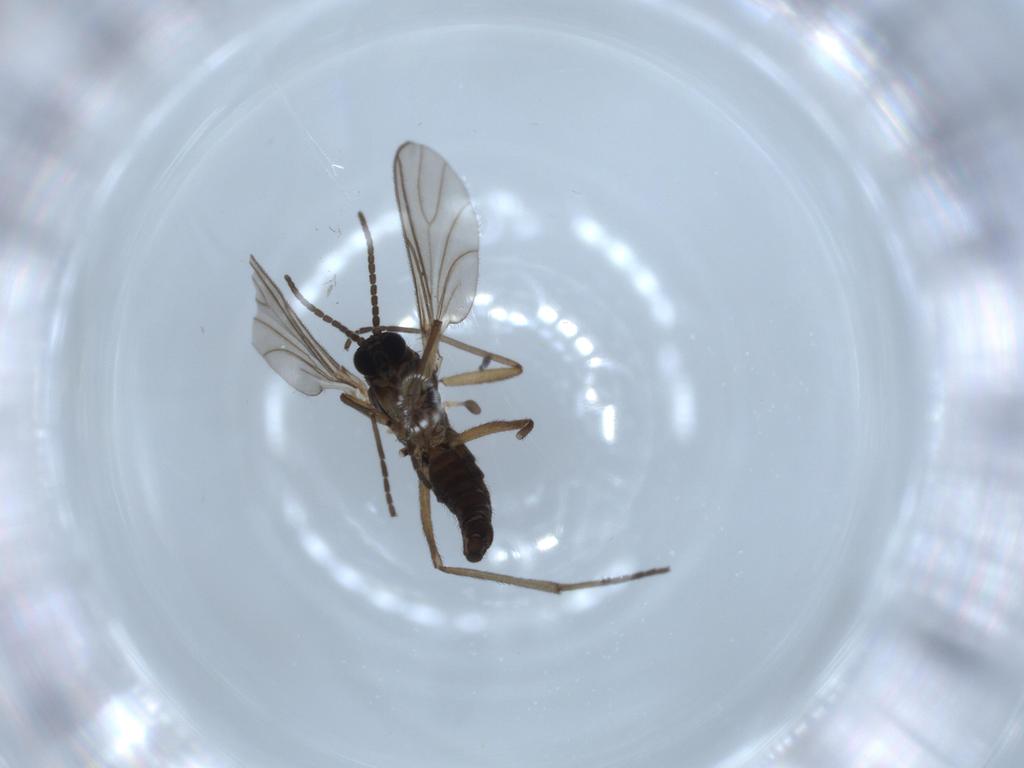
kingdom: Animalia
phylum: Arthropoda
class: Insecta
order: Diptera
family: Sciaridae
